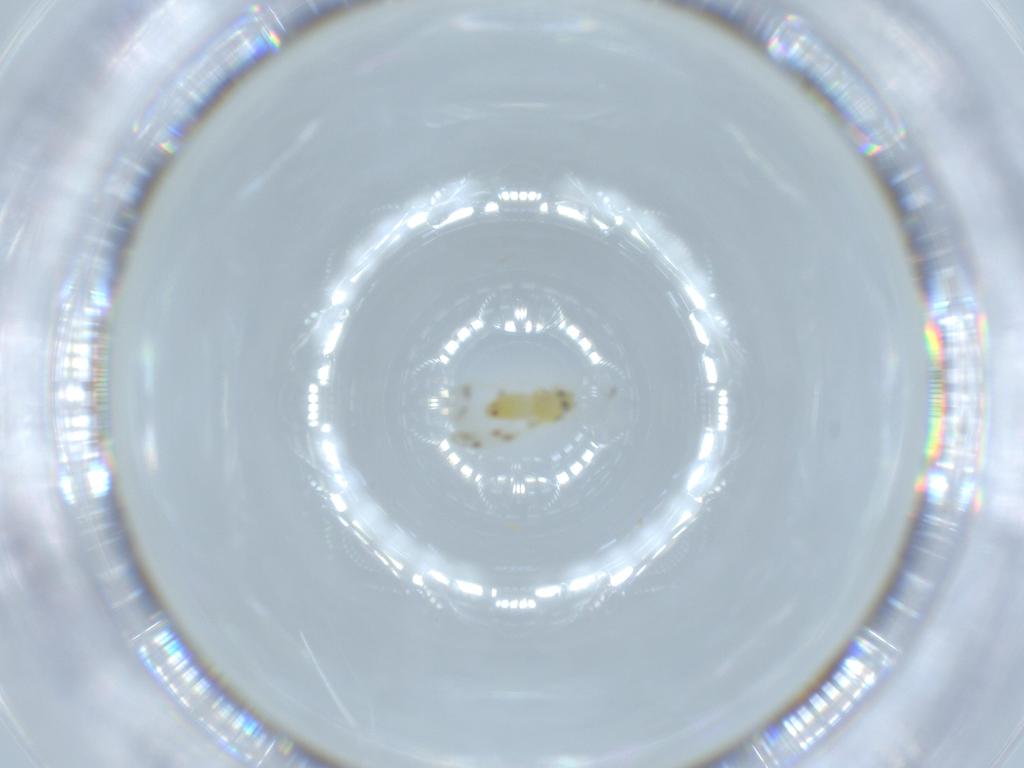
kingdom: Animalia
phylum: Arthropoda
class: Insecta
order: Hemiptera
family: Aleyrodidae
